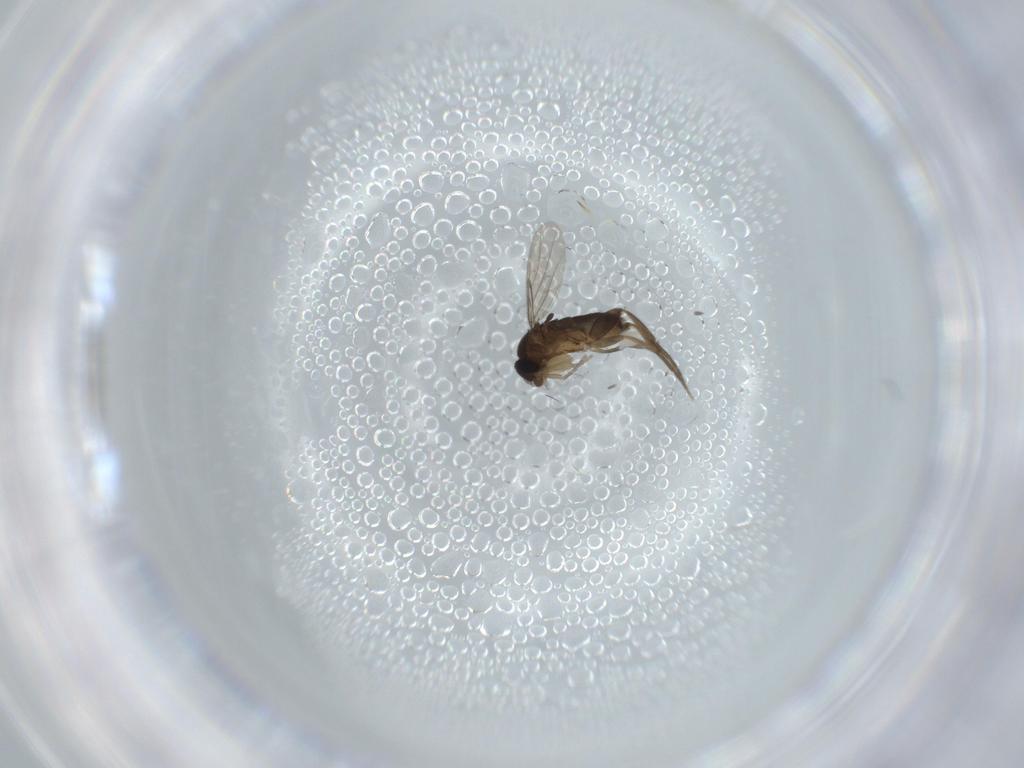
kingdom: Animalia
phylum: Arthropoda
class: Insecta
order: Diptera
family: Phoridae
